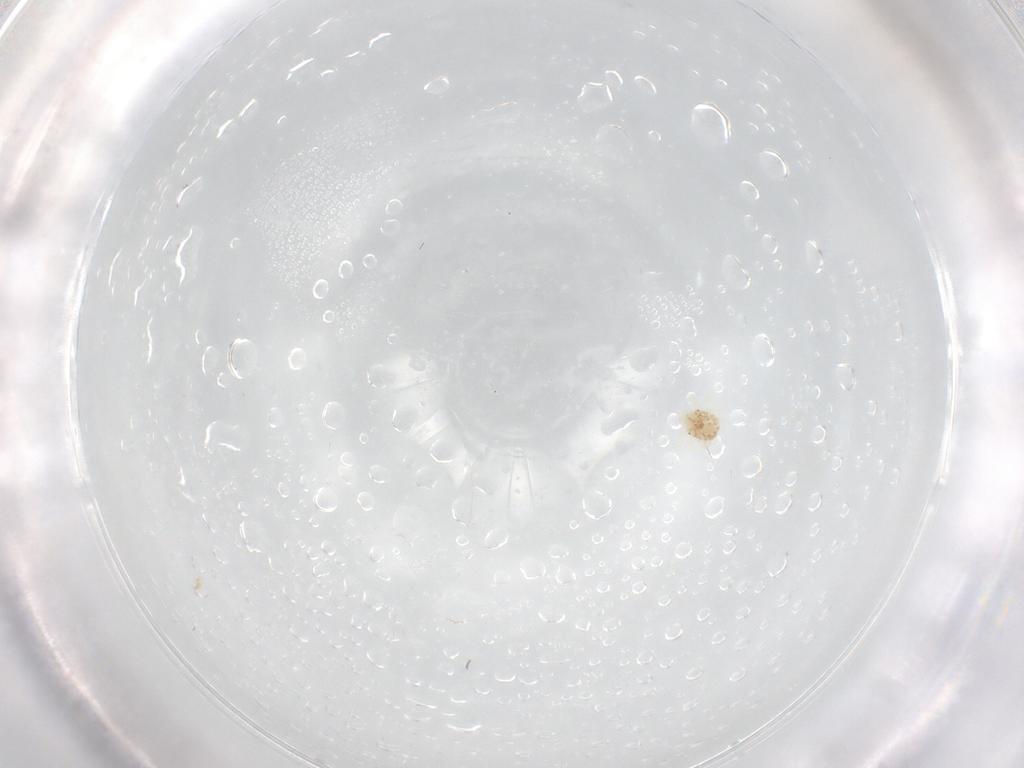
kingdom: Animalia
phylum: Arthropoda
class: Arachnida
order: Trombidiformes
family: Anystidae
